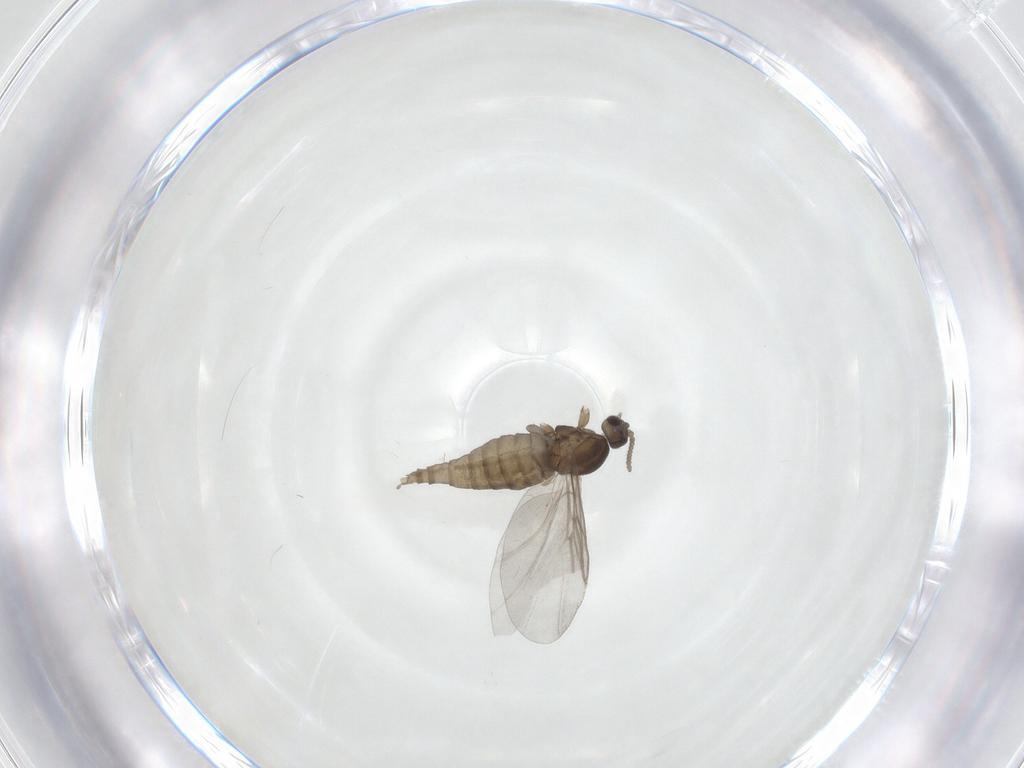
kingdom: Animalia
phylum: Arthropoda
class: Insecta
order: Diptera
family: Cecidomyiidae
